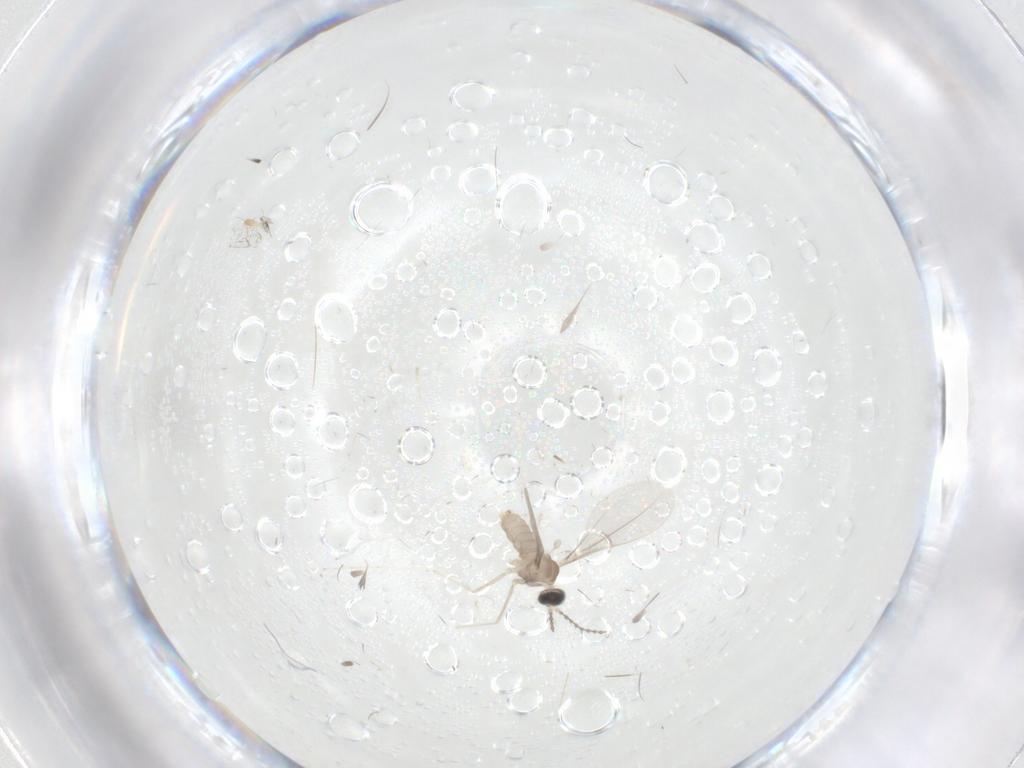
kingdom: Animalia
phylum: Arthropoda
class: Insecta
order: Diptera
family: Cecidomyiidae
